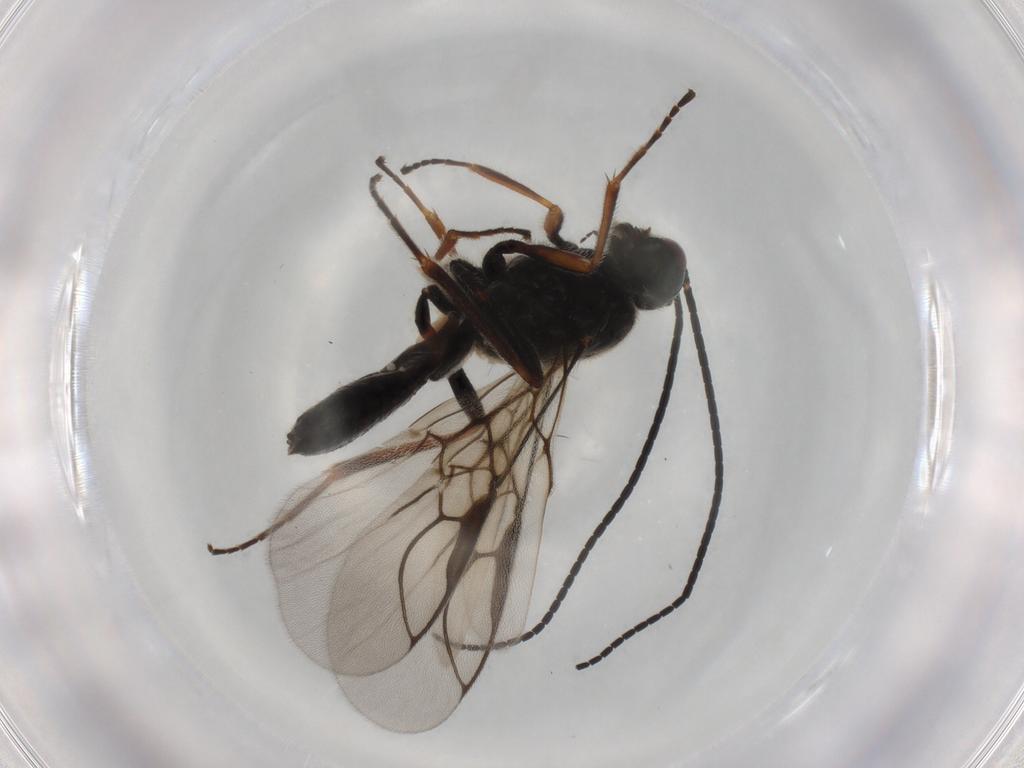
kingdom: Animalia
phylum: Arthropoda
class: Insecta
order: Hymenoptera
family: Braconidae
